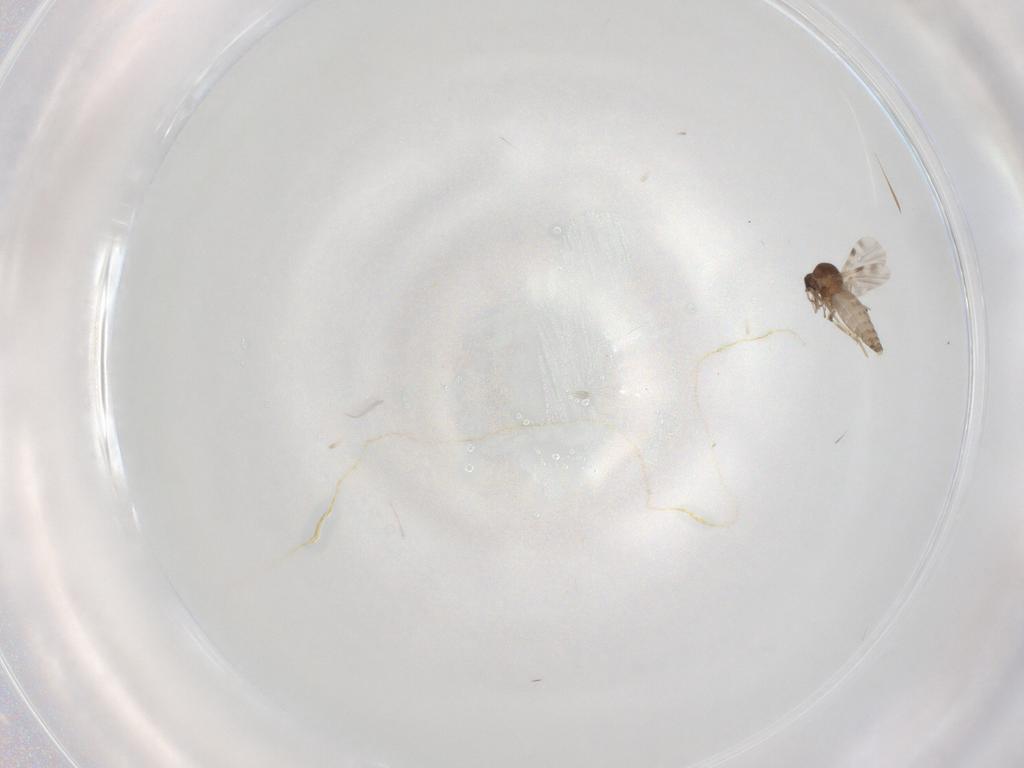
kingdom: Animalia
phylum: Arthropoda
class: Insecta
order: Diptera
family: Ceratopogonidae
